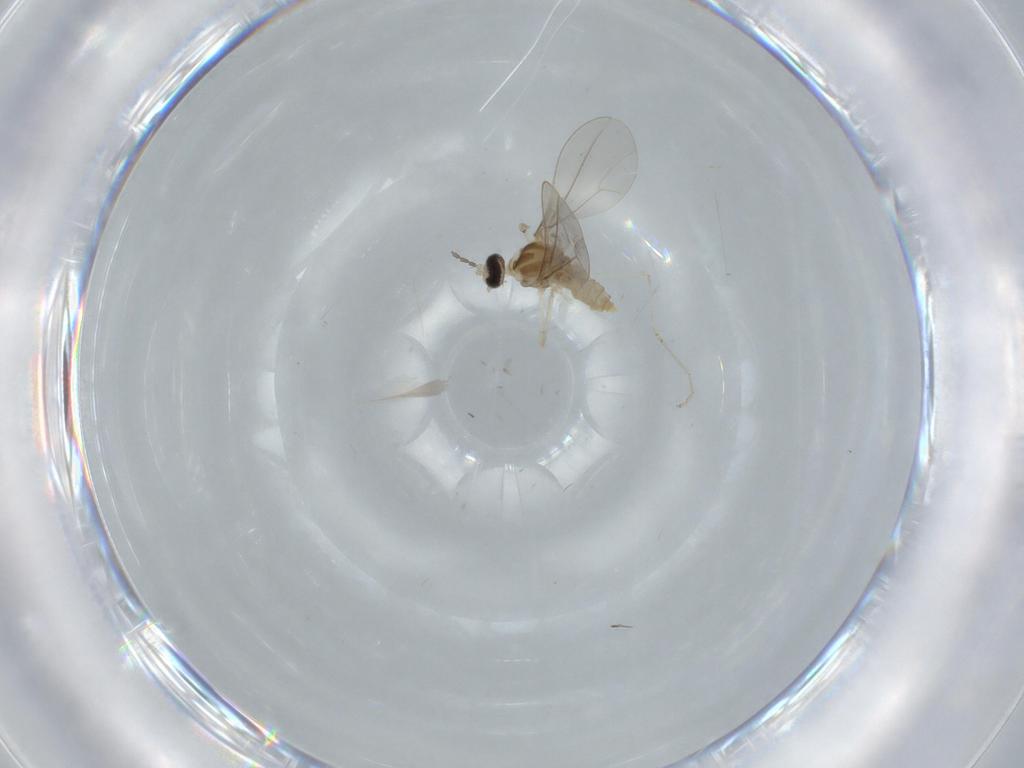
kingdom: Animalia
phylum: Arthropoda
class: Insecta
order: Diptera
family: Cecidomyiidae
